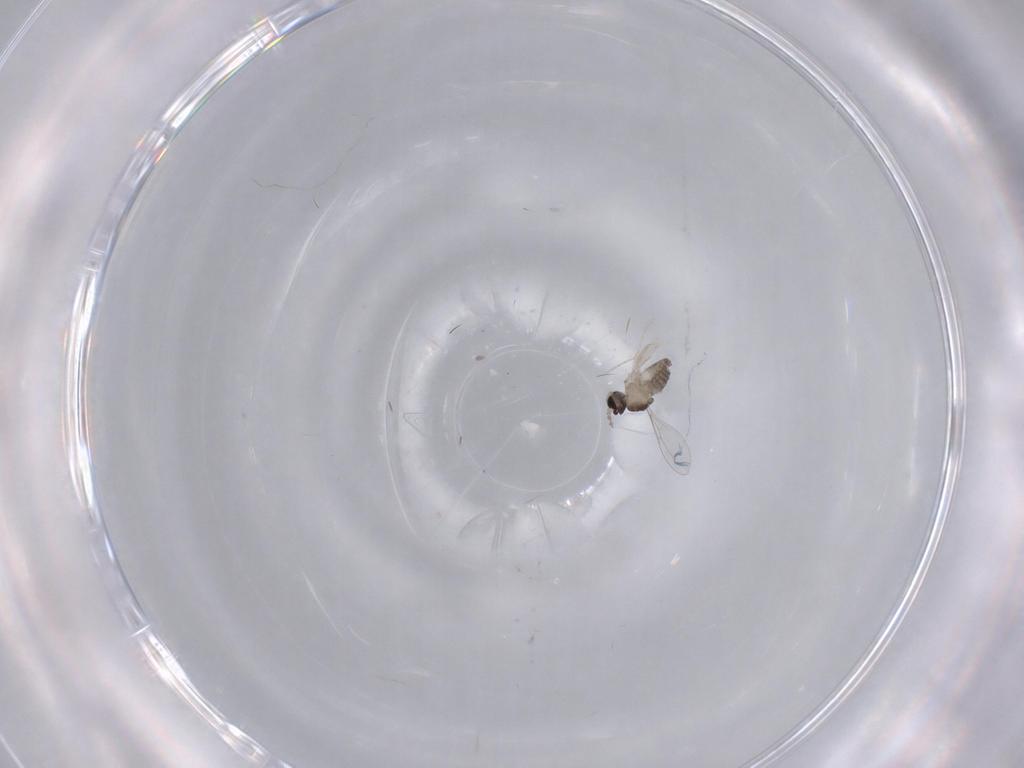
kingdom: Animalia
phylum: Arthropoda
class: Insecta
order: Diptera
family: Cecidomyiidae
